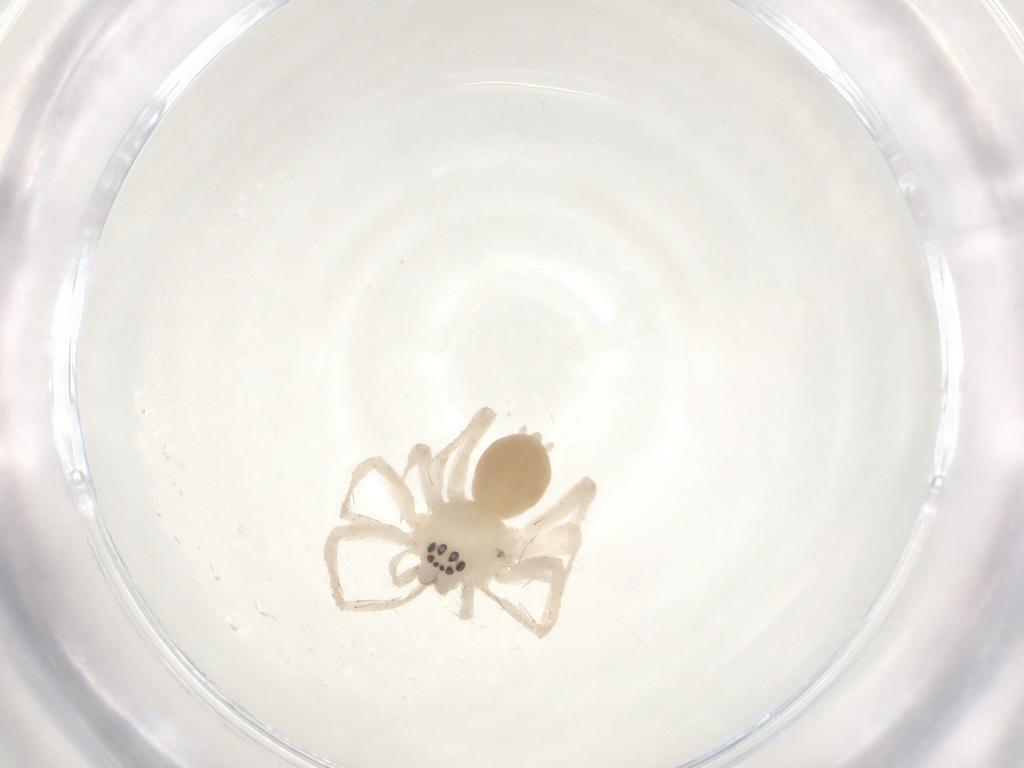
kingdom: Animalia
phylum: Arthropoda
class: Arachnida
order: Araneae
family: Anyphaenidae
